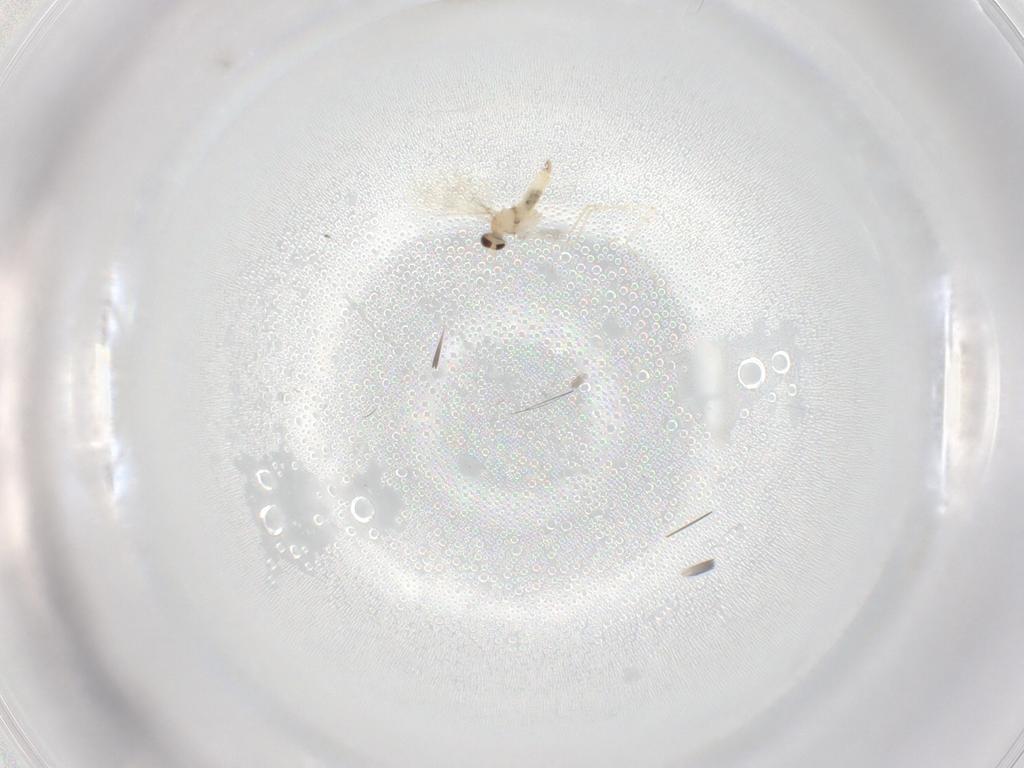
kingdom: Animalia
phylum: Arthropoda
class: Insecta
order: Diptera
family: Cecidomyiidae
